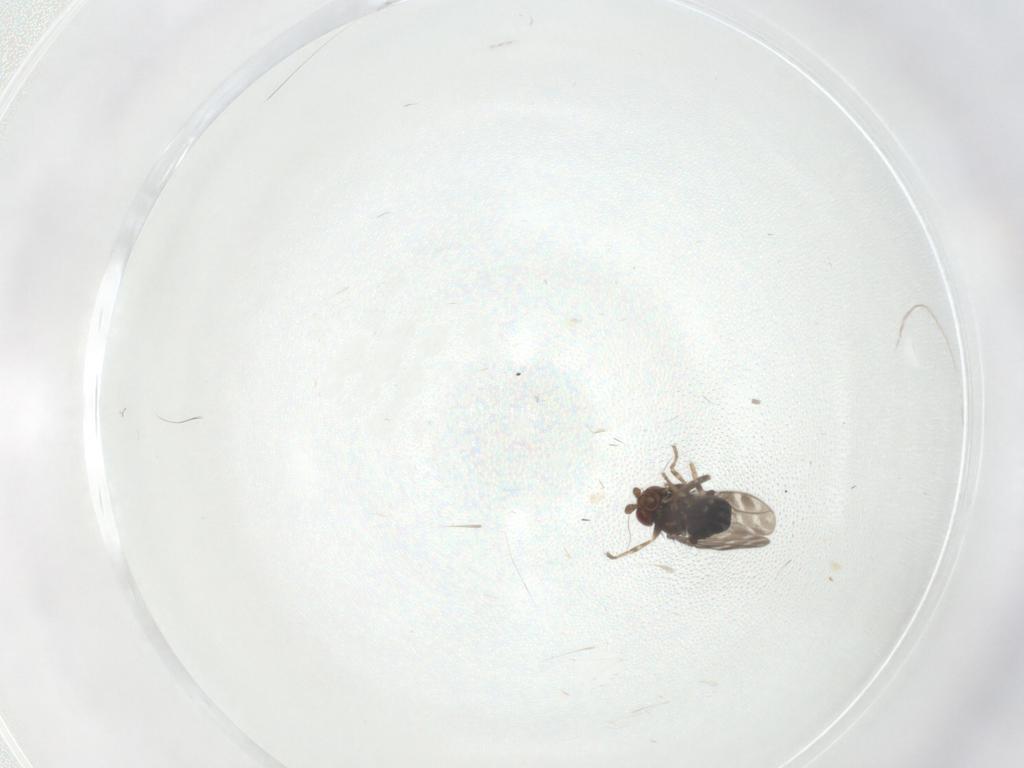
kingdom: Animalia
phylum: Arthropoda
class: Insecta
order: Diptera
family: Sphaeroceridae
